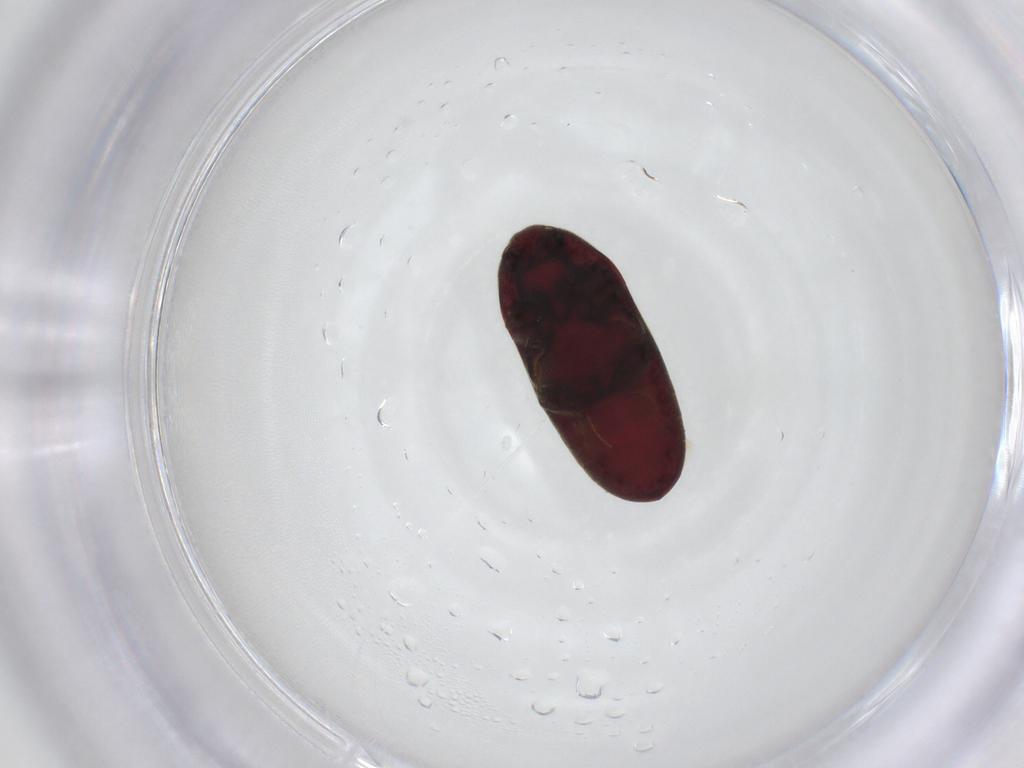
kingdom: Animalia
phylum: Arthropoda
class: Insecta
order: Coleoptera
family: Throscidae
